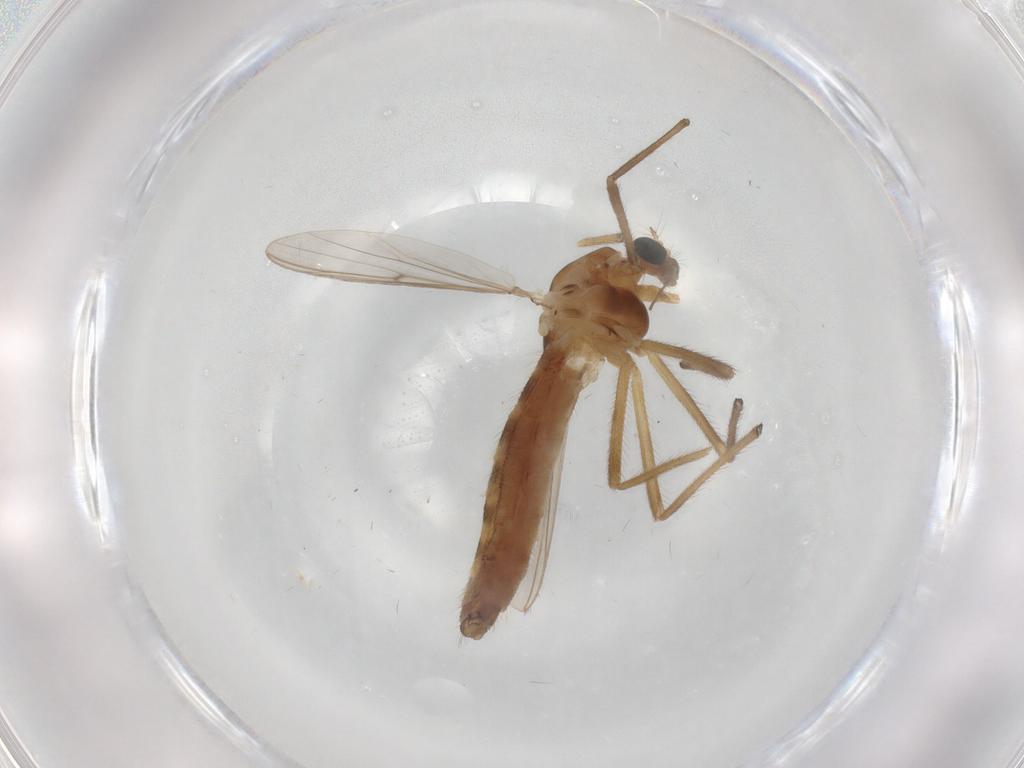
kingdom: Animalia
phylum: Arthropoda
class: Insecta
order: Diptera
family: Chironomidae
